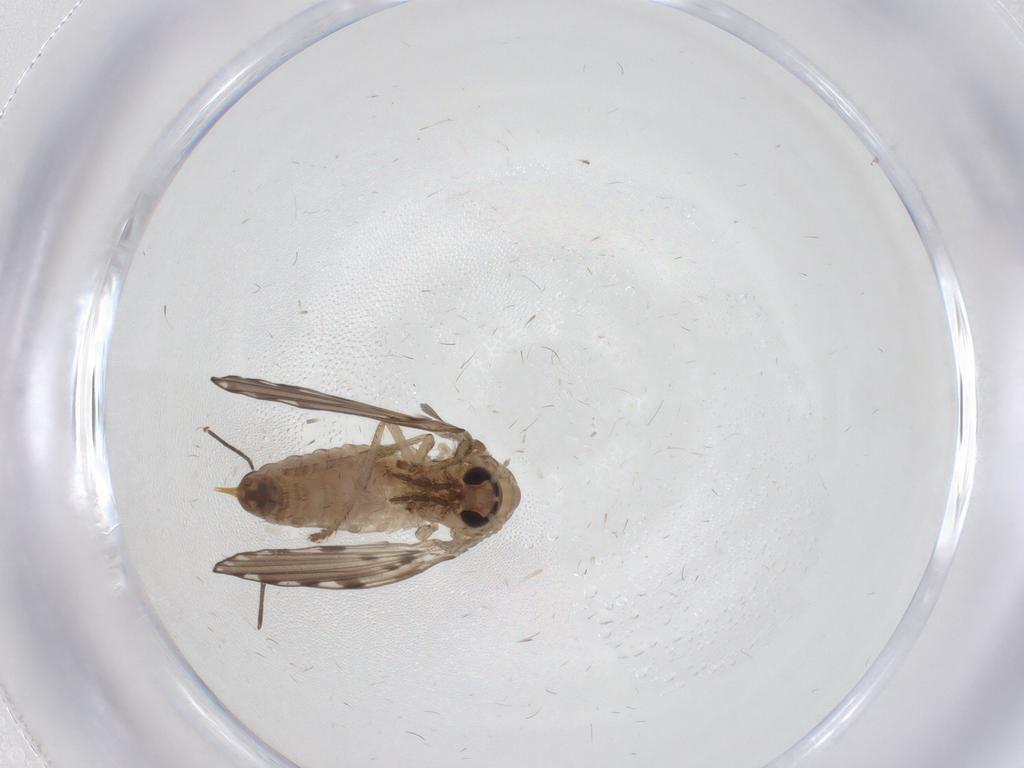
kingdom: Animalia
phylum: Arthropoda
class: Insecta
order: Diptera
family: Psychodidae
